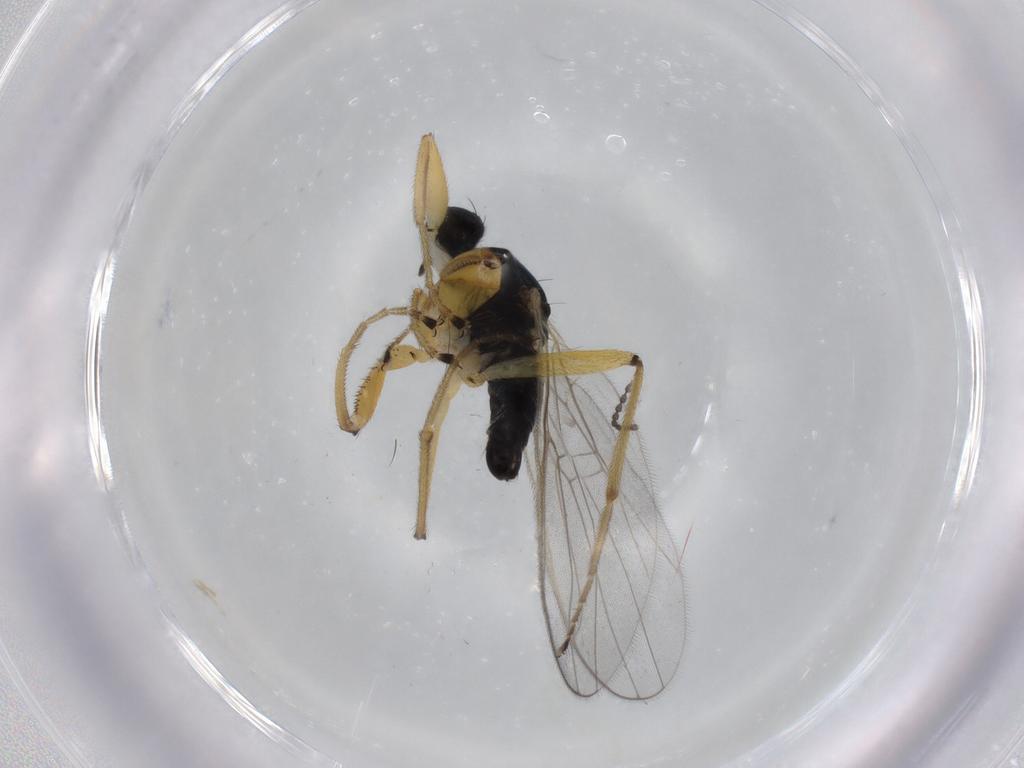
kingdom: Animalia
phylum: Arthropoda
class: Insecta
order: Diptera
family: Hybotidae
